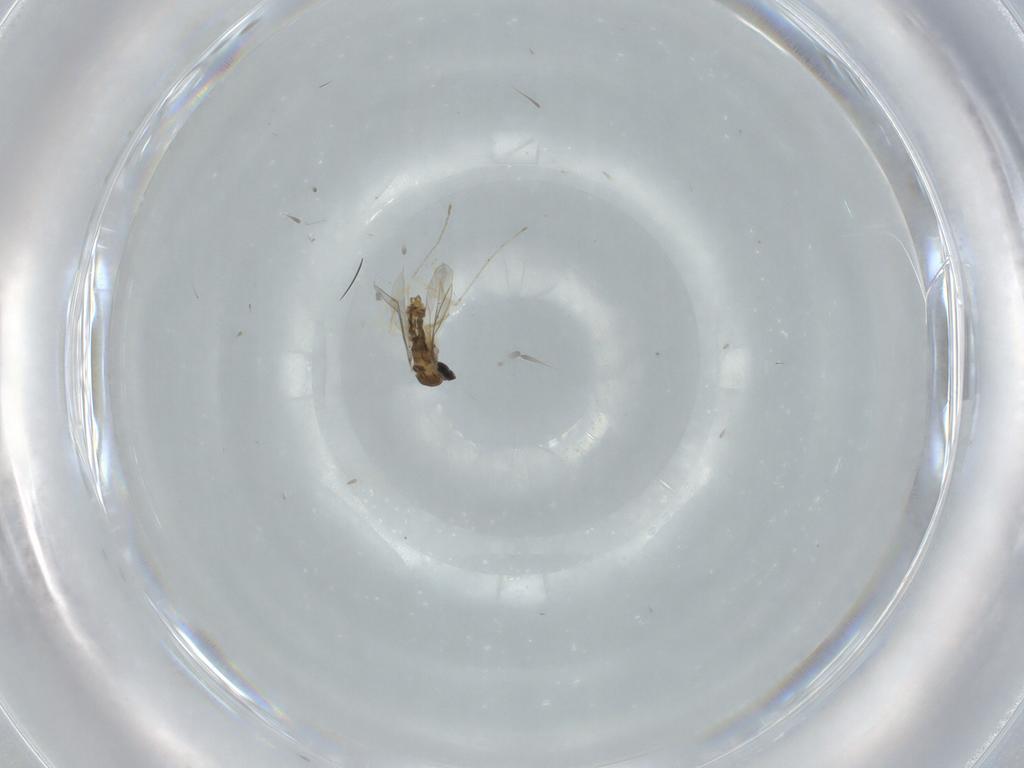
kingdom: Animalia
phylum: Arthropoda
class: Insecta
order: Diptera
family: Cecidomyiidae
